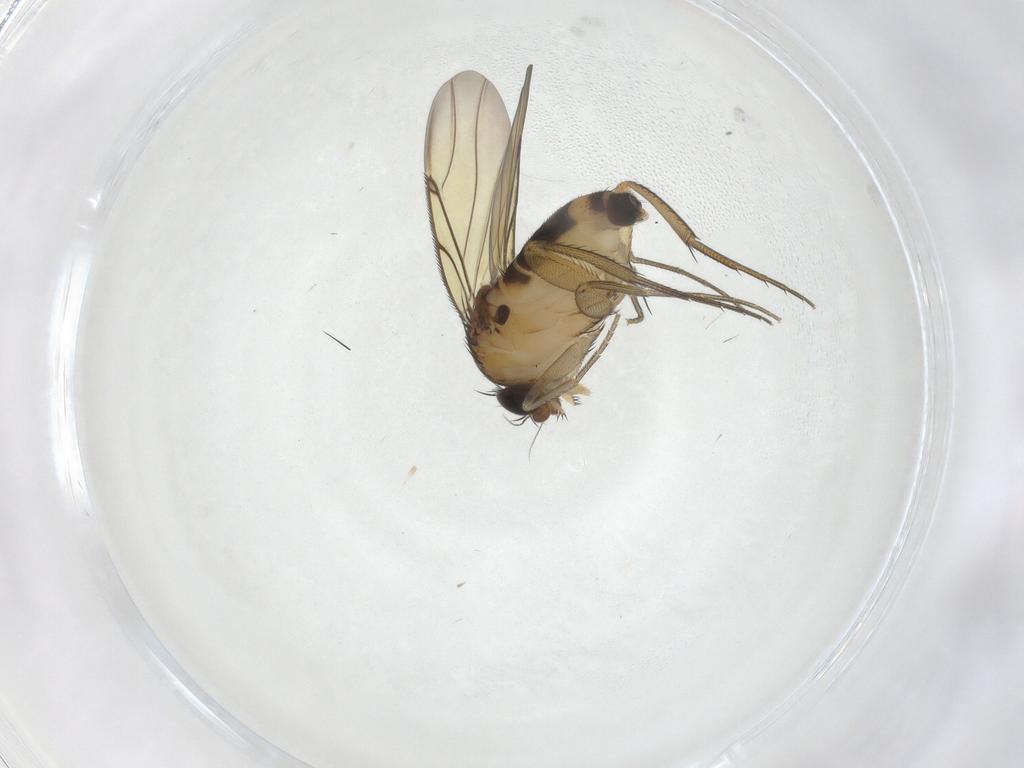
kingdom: Animalia
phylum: Arthropoda
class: Insecta
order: Diptera
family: Phoridae
